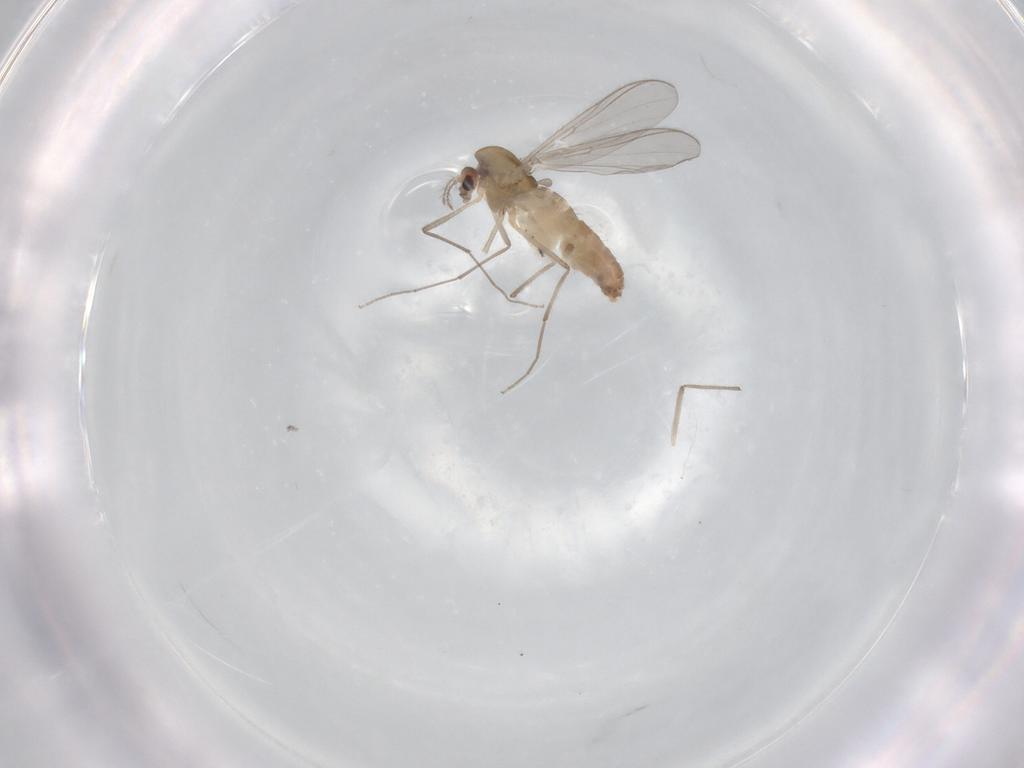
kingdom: Animalia
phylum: Arthropoda
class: Insecta
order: Diptera
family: Chironomidae
